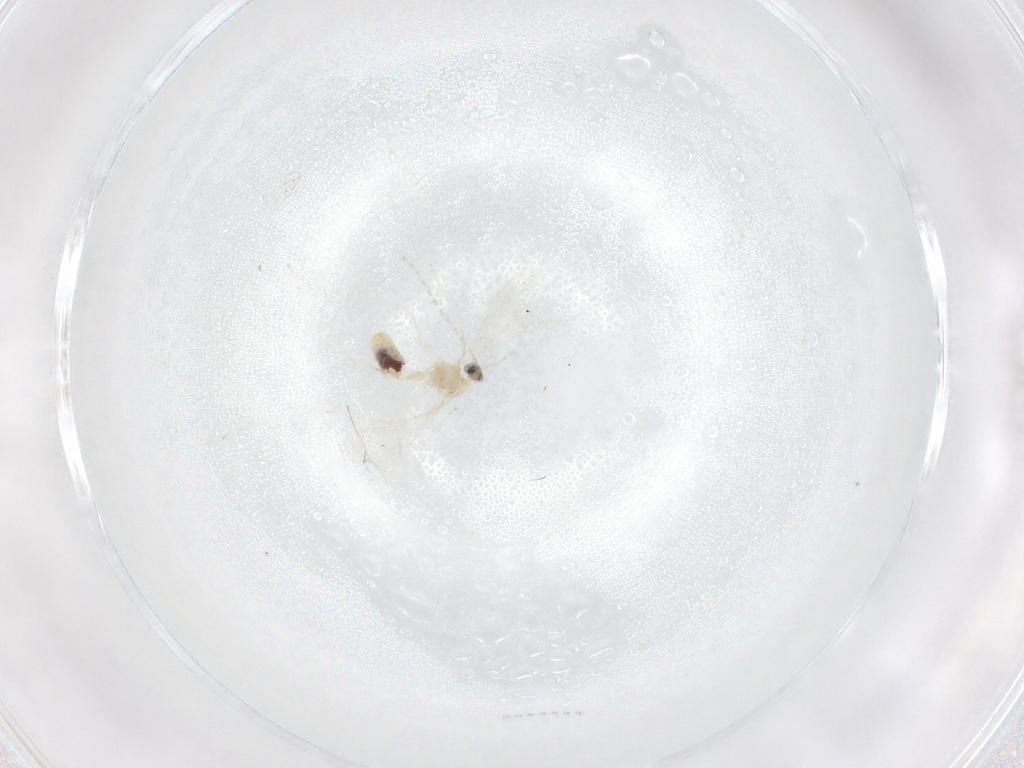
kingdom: Animalia
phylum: Arthropoda
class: Insecta
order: Diptera
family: Cecidomyiidae
